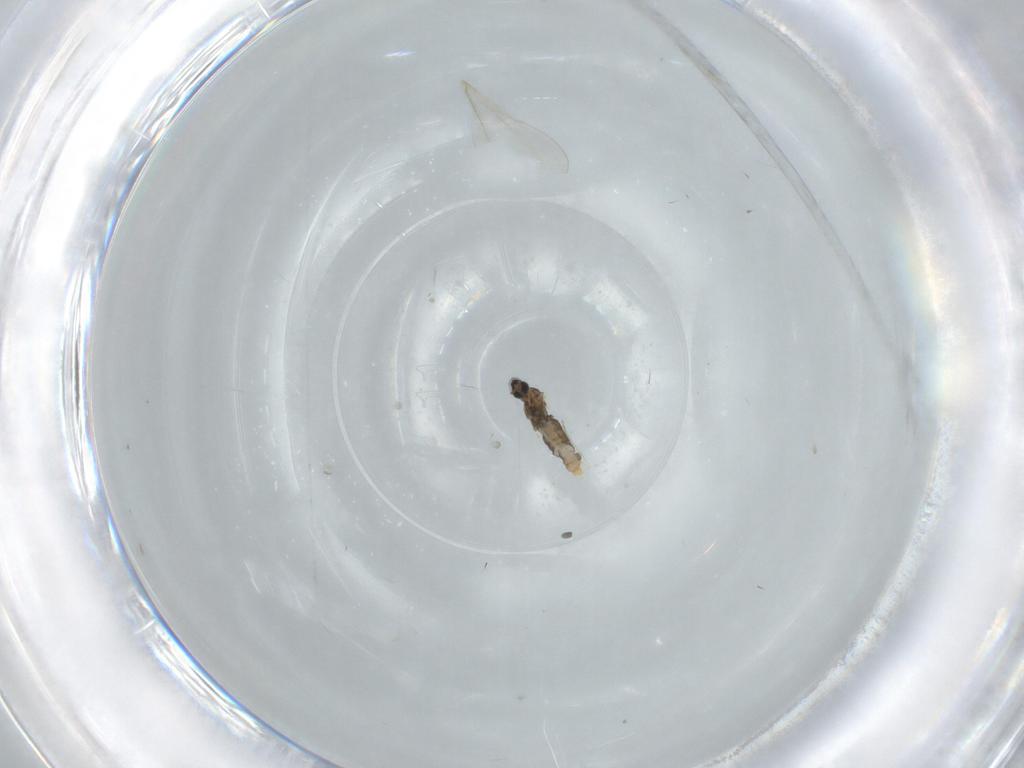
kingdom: Animalia
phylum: Arthropoda
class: Insecta
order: Diptera
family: Cecidomyiidae
